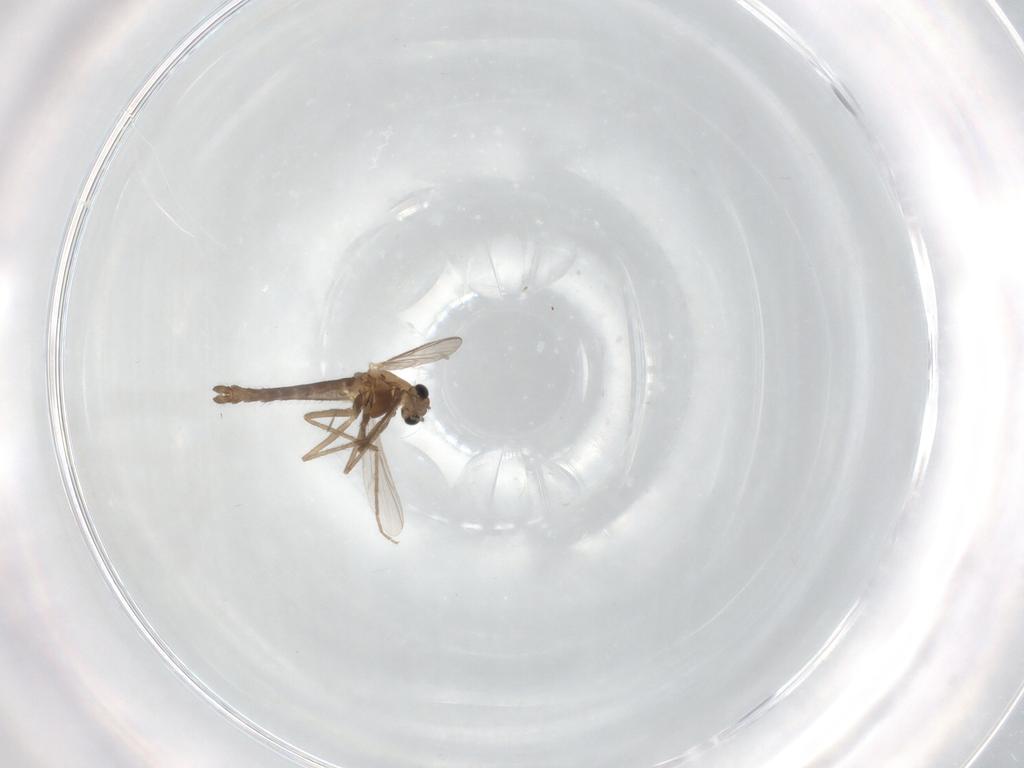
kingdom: Animalia
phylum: Arthropoda
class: Insecta
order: Diptera
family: Chironomidae
